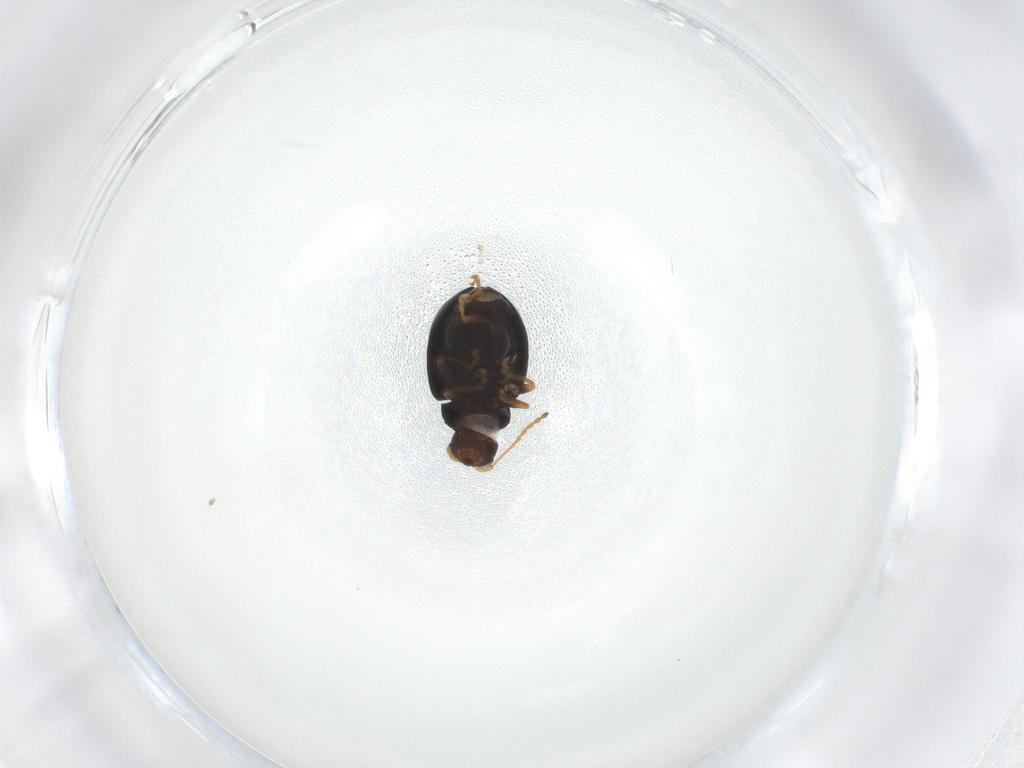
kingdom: Animalia
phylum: Arthropoda
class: Insecta
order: Coleoptera
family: Chrysomelidae
